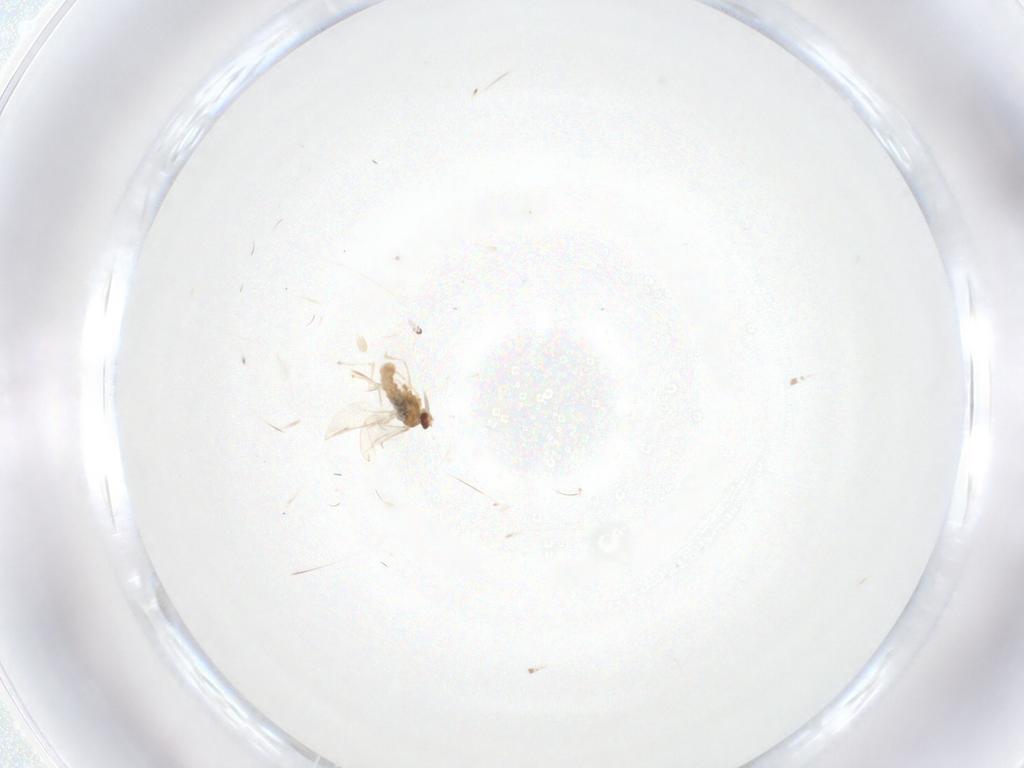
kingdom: Animalia
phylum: Arthropoda
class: Insecta
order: Diptera
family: Cecidomyiidae
